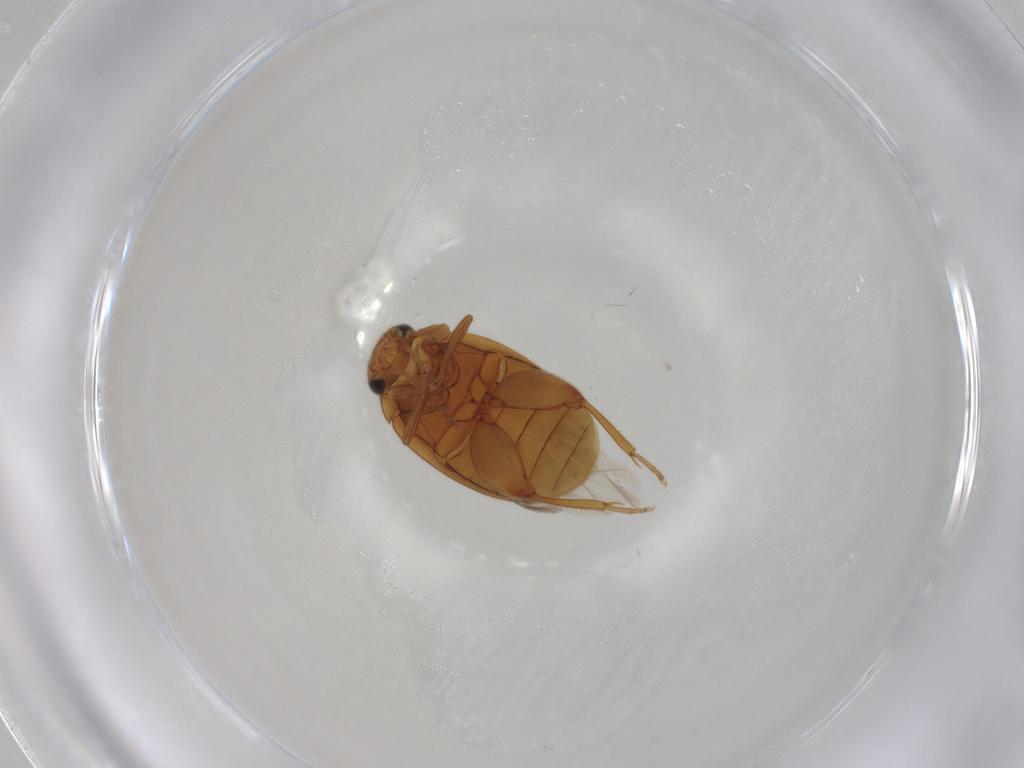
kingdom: Animalia
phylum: Arthropoda
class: Insecta
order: Coleoptera
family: Scirtidae
